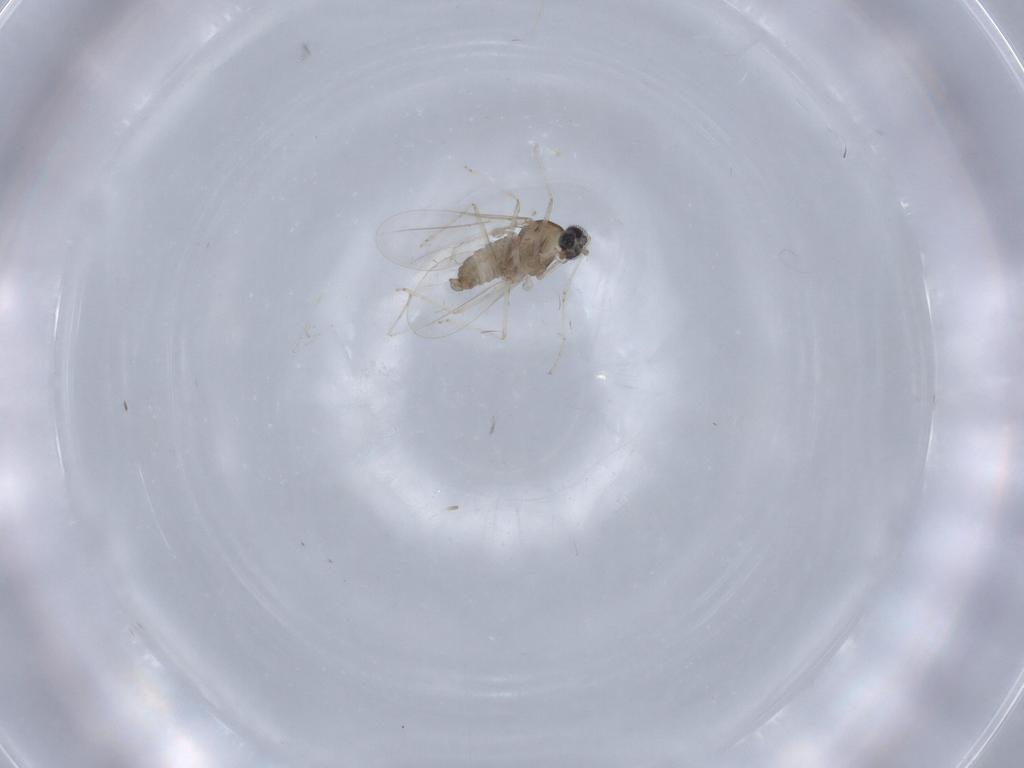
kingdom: Animalia
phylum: Arthropoda
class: Insecta
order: Diptera
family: Cecidomyiidae
